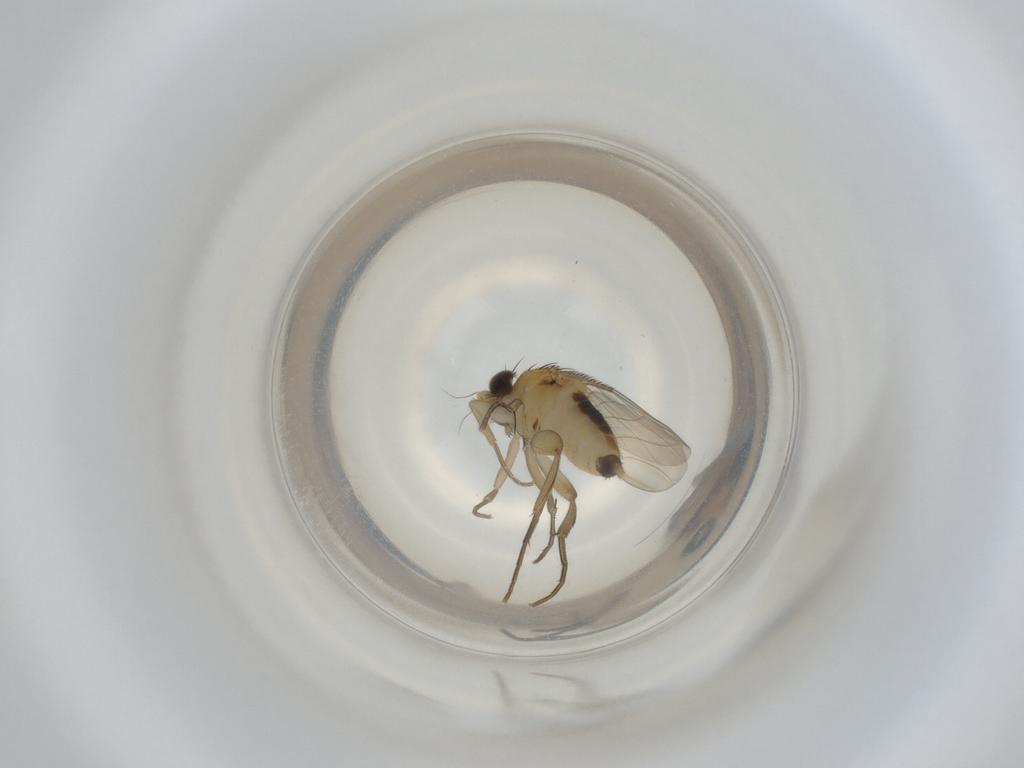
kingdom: Animalia
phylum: Arthropoda
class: Insecta
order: Diptera
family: Phoridae
